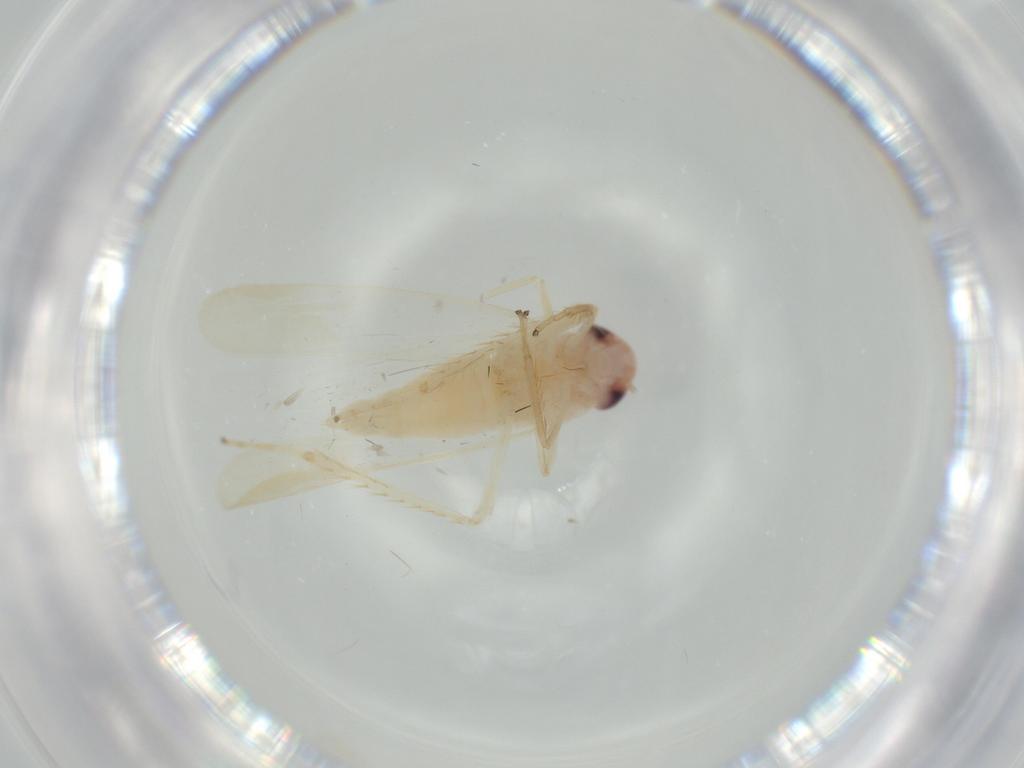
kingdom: Animalia
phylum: Arthropoda
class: Insecta
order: Hemiptera
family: Cicadellidae
